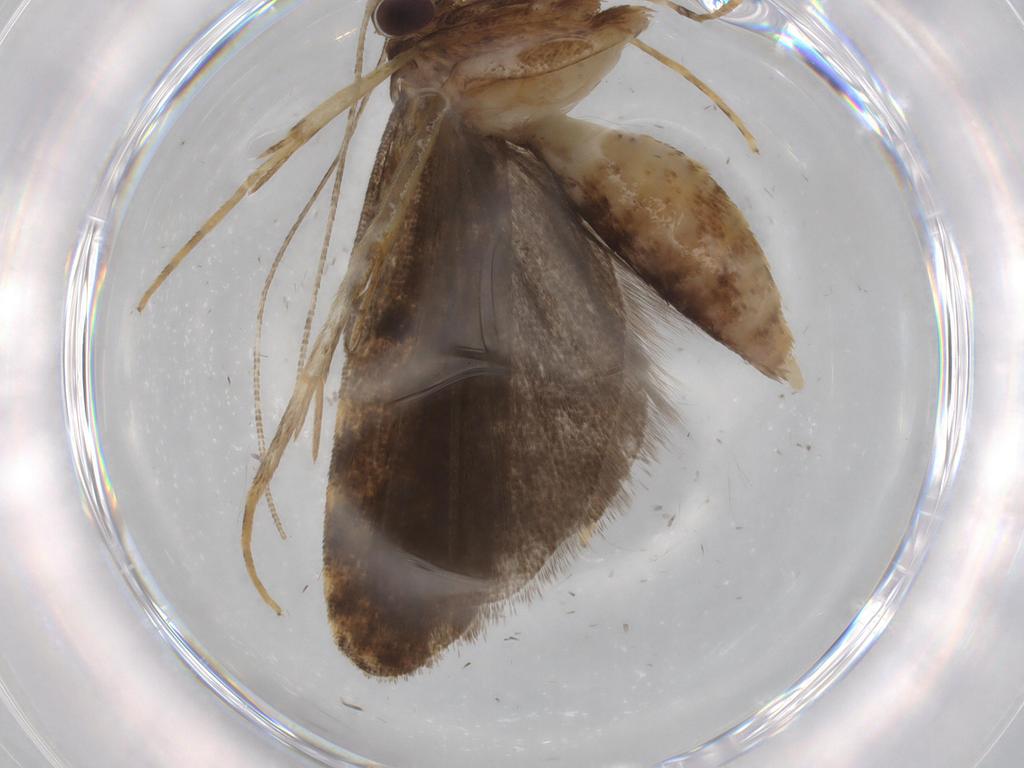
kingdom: Animalia
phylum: Arthropoda
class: Insecta
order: Lepidoptera
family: Autostichidae
